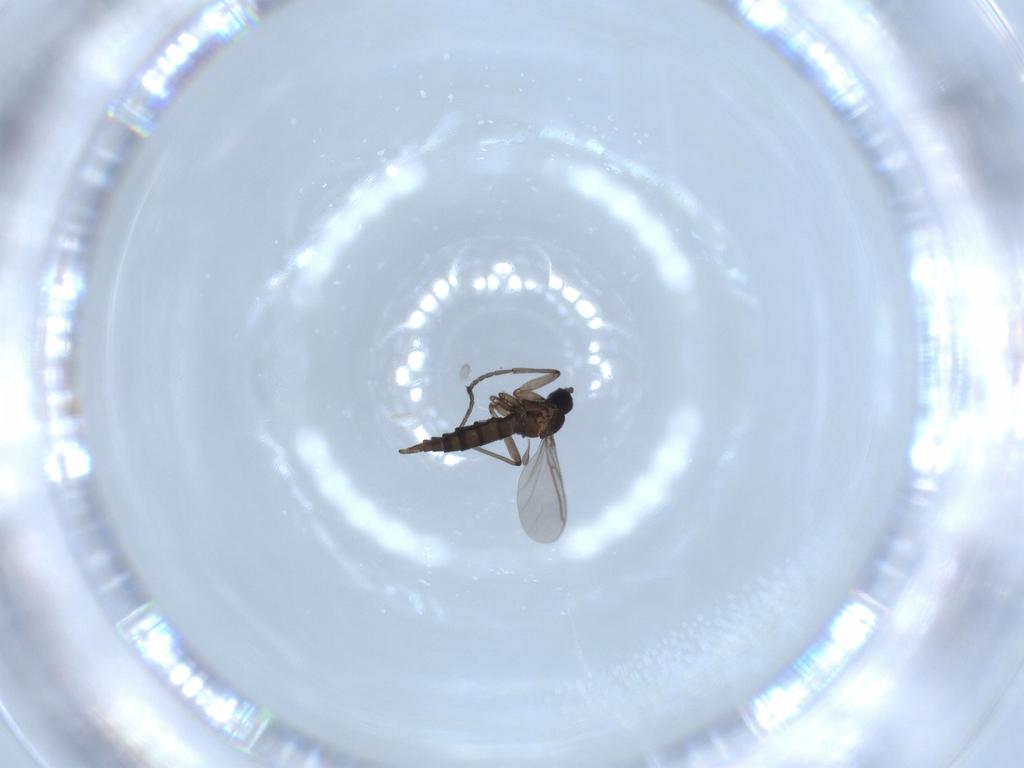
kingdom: Animalia
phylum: Arthropoda
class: Insecta
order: Diptera
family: Sciaridae
